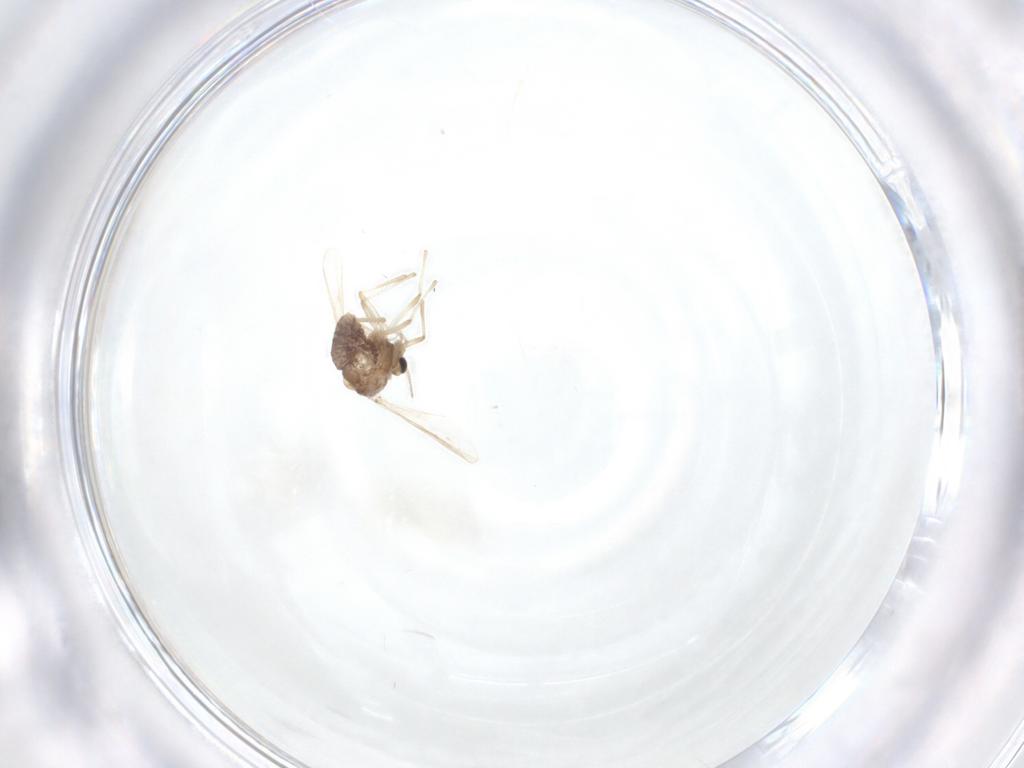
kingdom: Animalia
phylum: Arthropoda
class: Insecta
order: Diptera
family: Chironomidae
